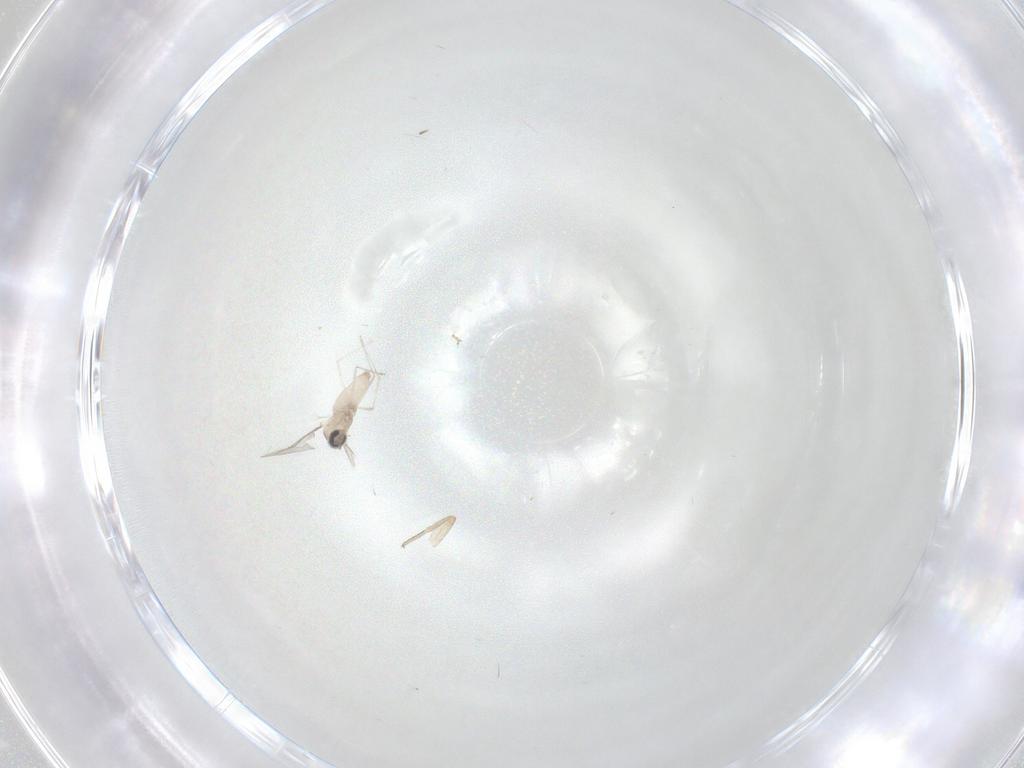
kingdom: Animalia
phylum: Arthropoda
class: Insecta
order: Diptera
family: Cecidomyiidae
